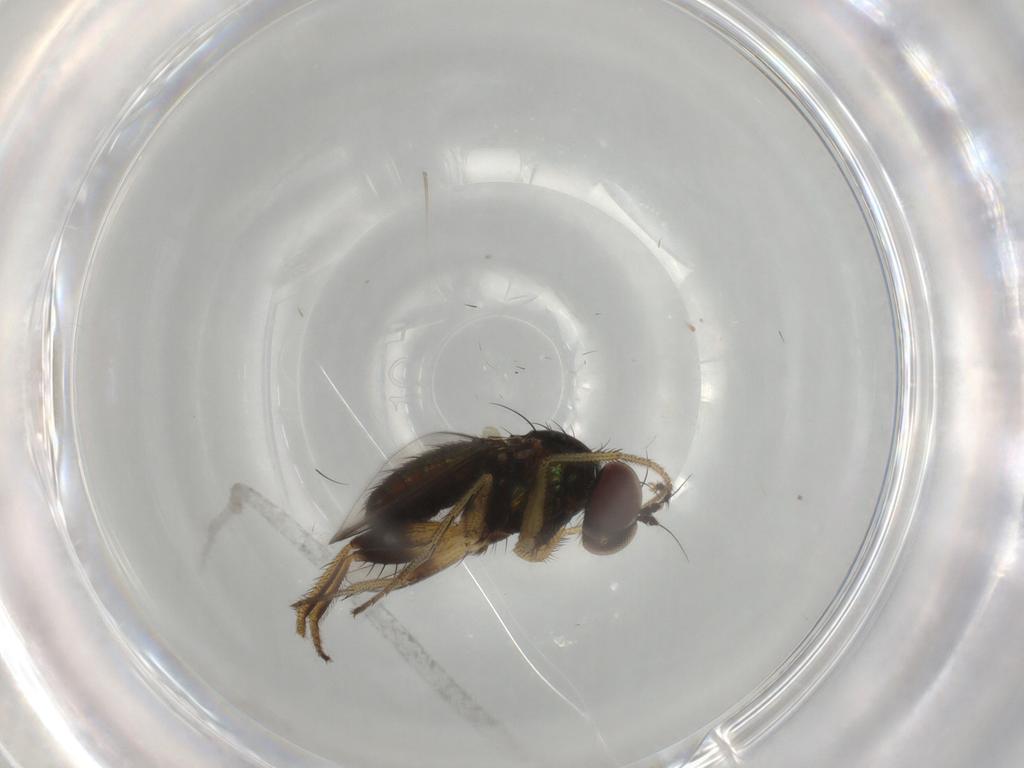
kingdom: Animalia
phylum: Arthropoda
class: Insecta
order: Diptera
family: Dolichopodidae
